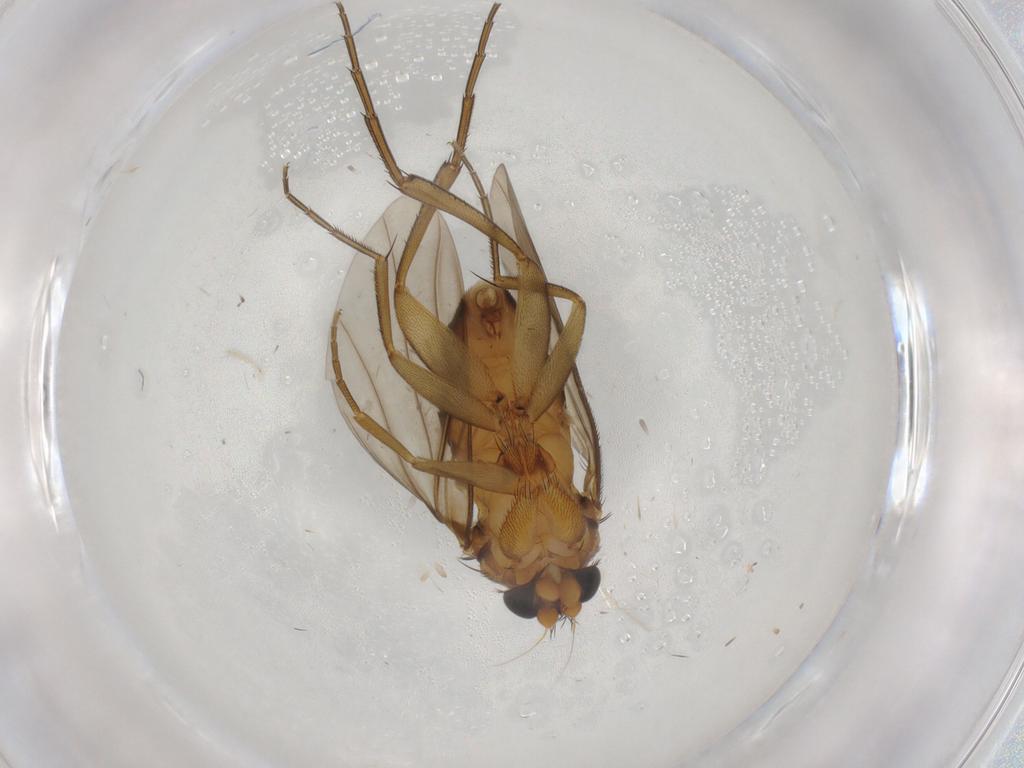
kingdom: Animalia
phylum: Arthropoda
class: Insecta
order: Diptera
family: Phoridae
